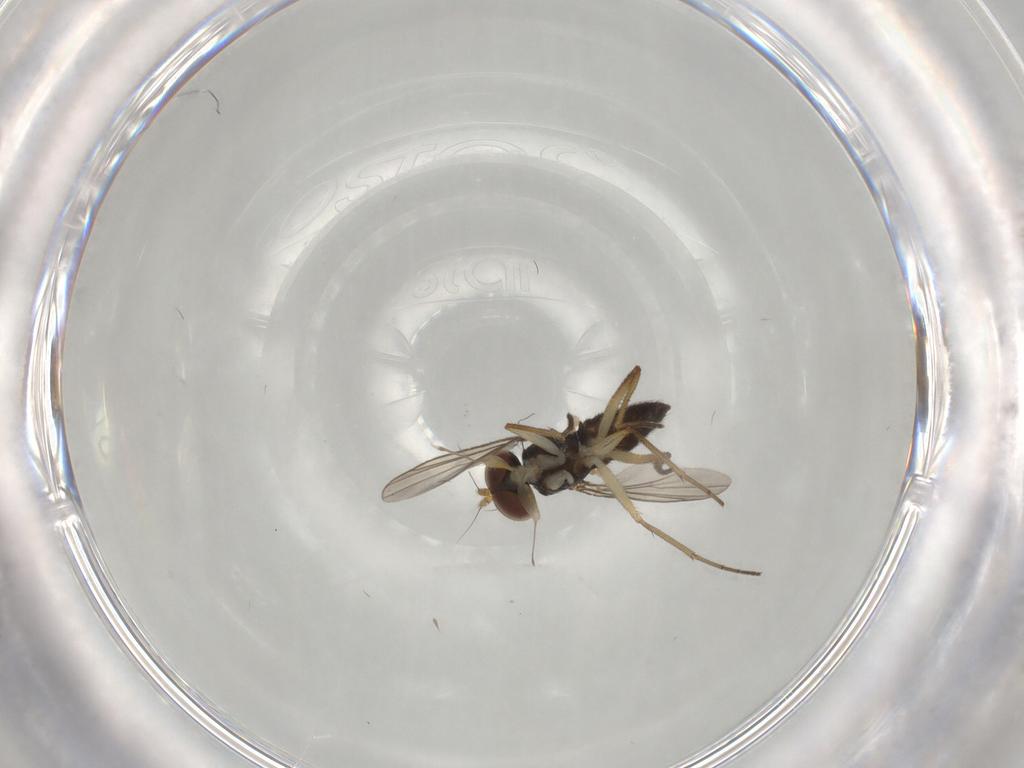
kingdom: Animalia
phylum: Arthropoda
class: Insecta
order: Diptera
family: Dolichopodidae
